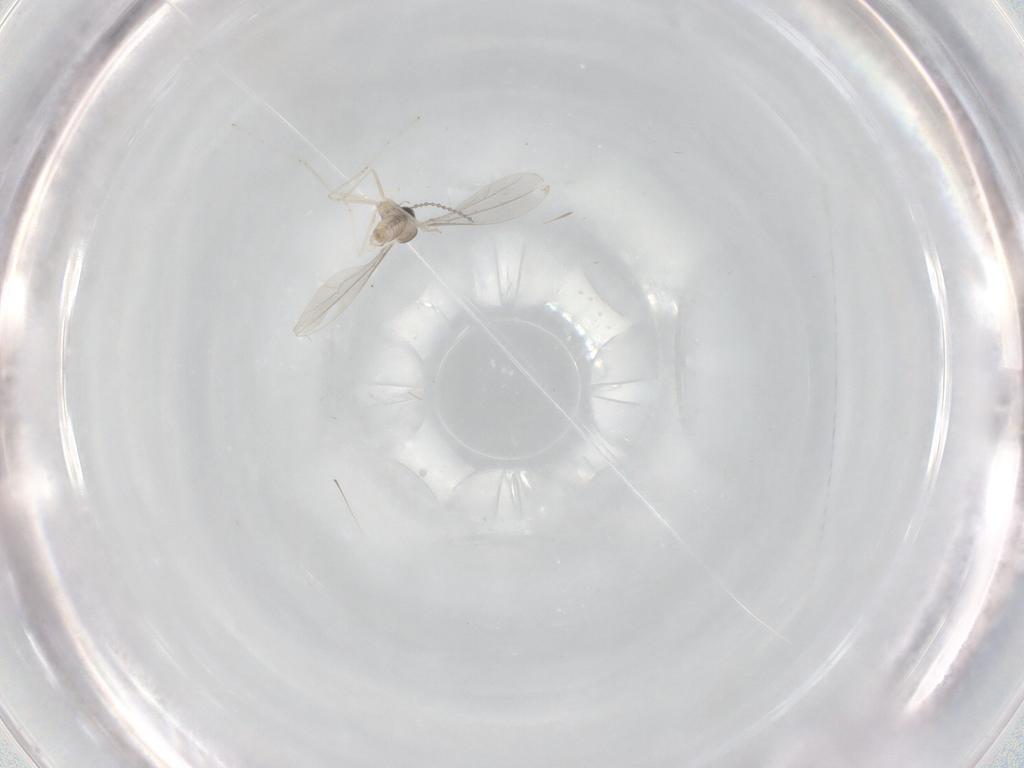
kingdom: Animalia
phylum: Arthropoda
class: Insecta
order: Diptera
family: Cecidomyiidae
